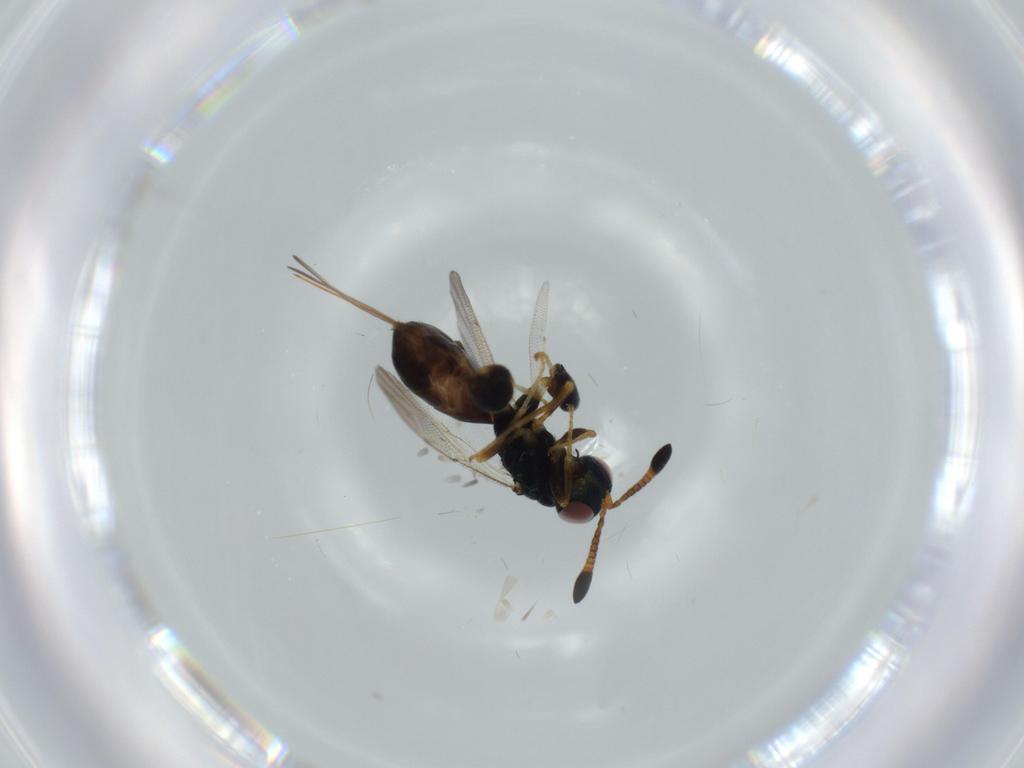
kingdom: Animalia
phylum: Arthropoda
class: Insecta
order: Hymenoptera
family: Torymidae
